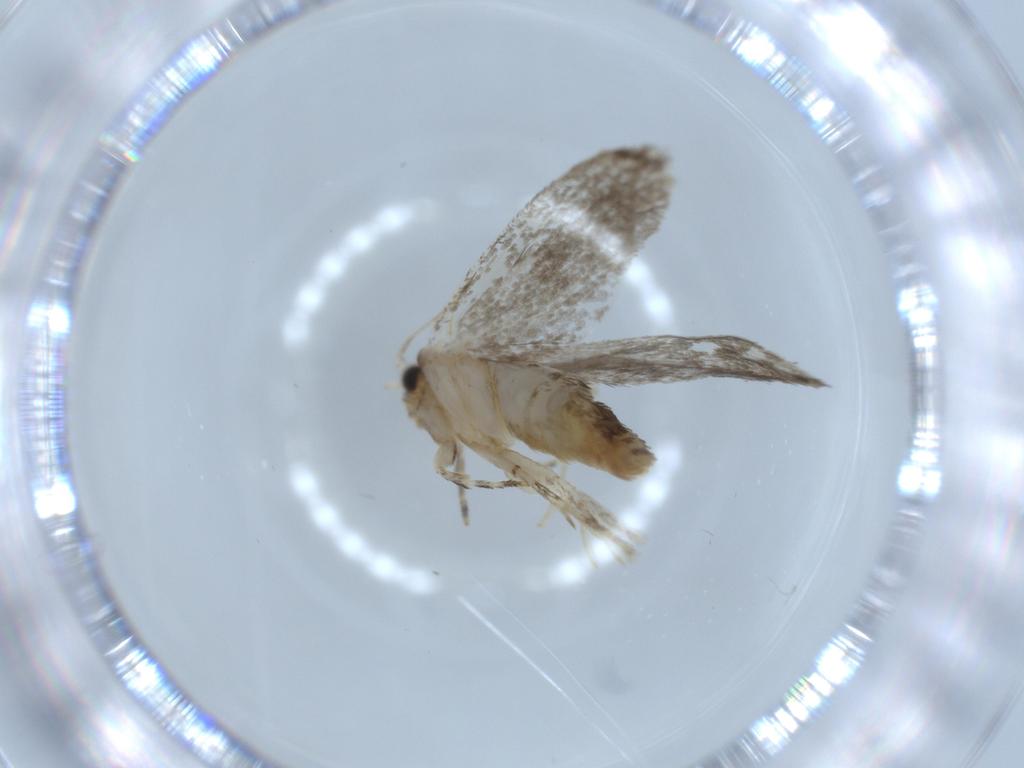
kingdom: Animalia
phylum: Arthropoda
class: Insecta
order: Lepidoptera
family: Tineidae
